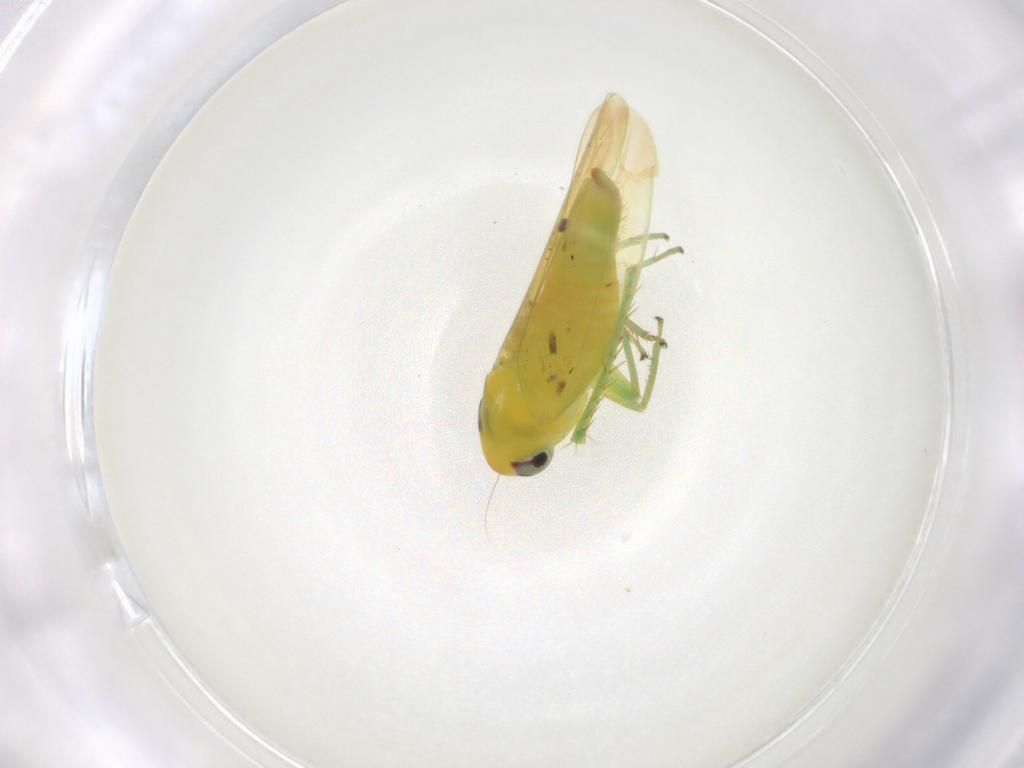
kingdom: Animalia
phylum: Arthropoda
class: Insecta
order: Hemiptera
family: Cicadellidae
